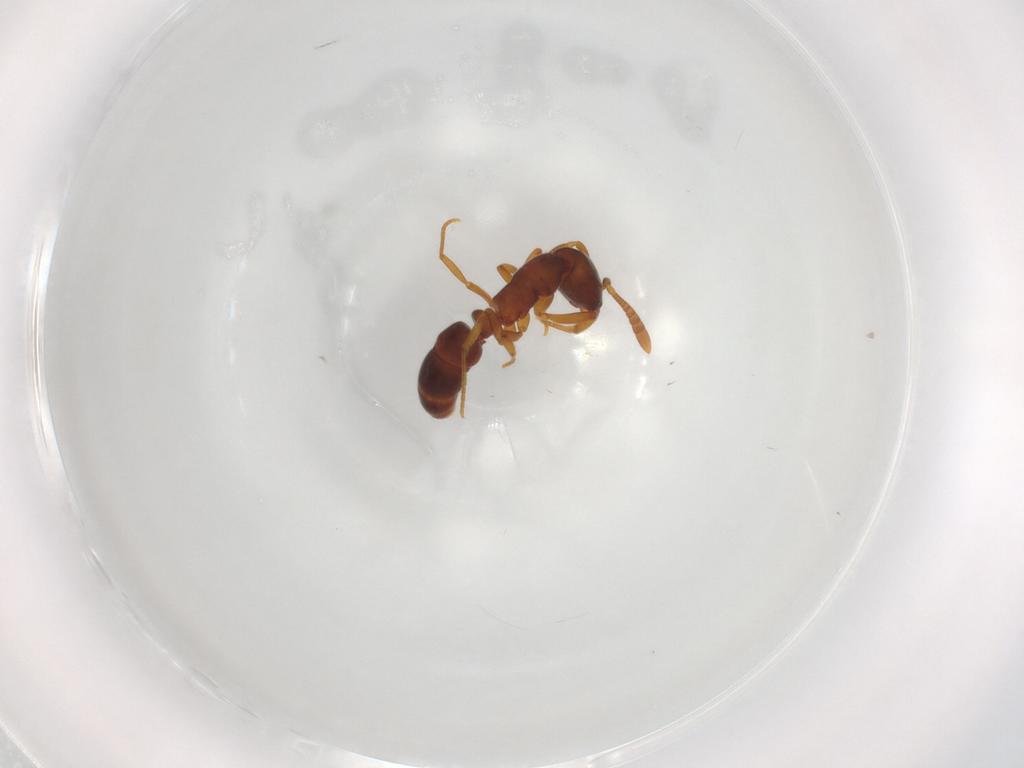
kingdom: Animalia
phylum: Arthropoda
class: Insecta
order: Hymenoptera
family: Formicidae
